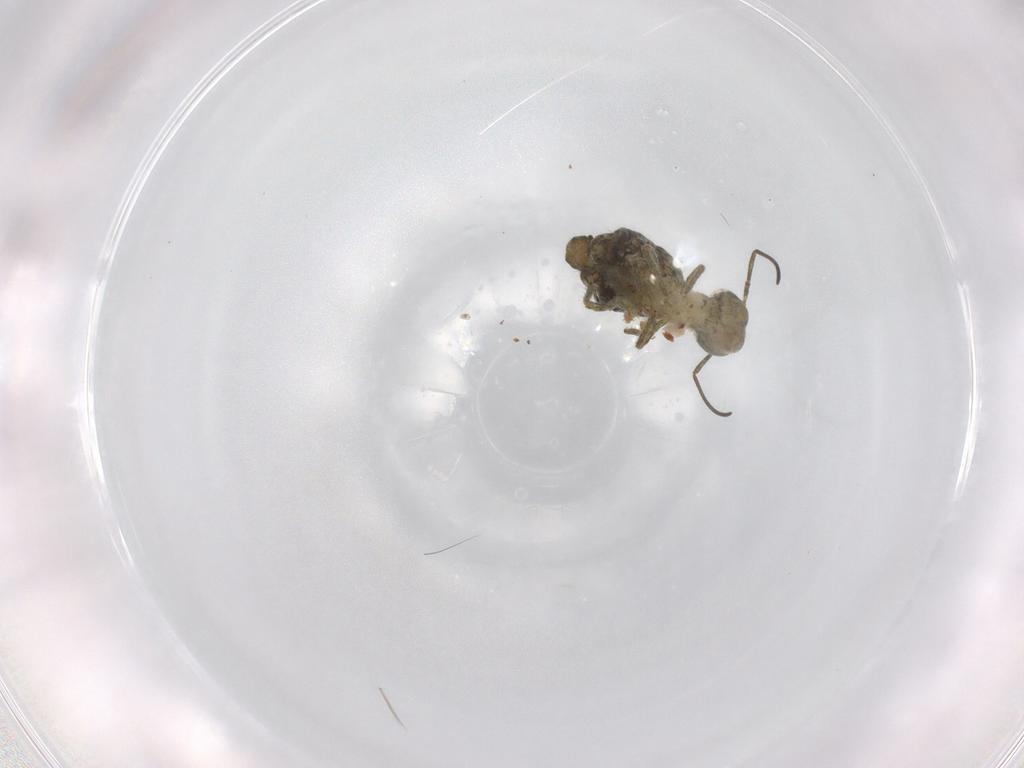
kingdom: Animalia
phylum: Arthropoda
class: Collembola
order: Symphypleona
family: Sminthuridae
